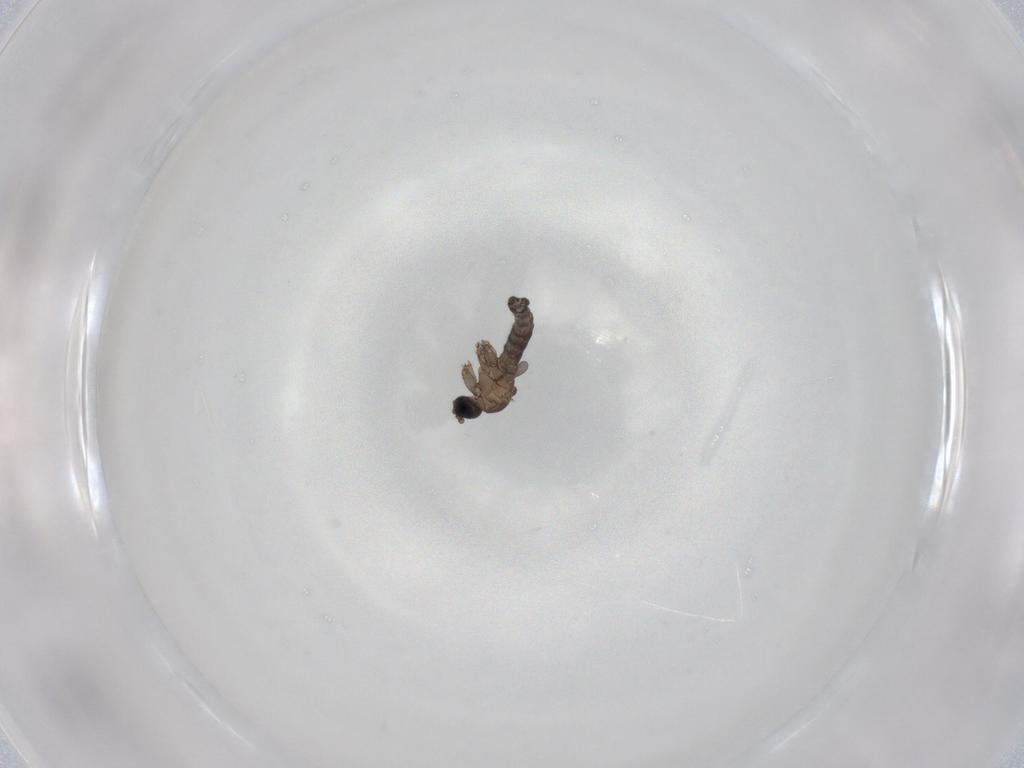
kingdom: Animalia
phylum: Arthropoda
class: Insecta
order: Diptera
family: Sciaridae
